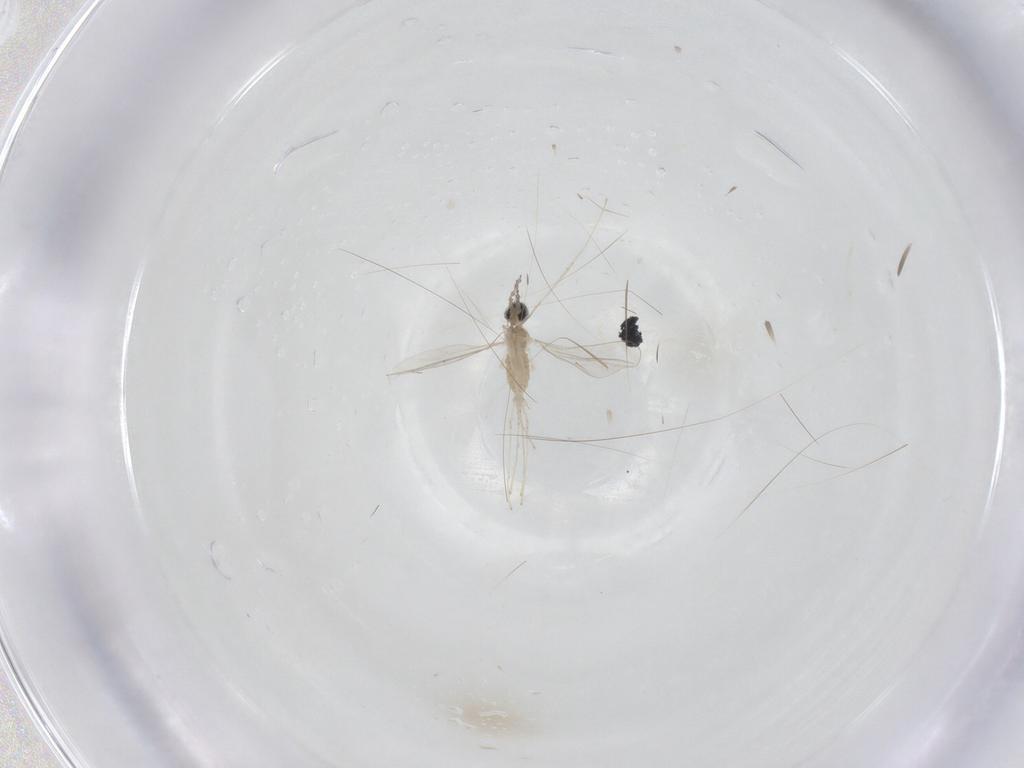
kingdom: Animalia
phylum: Arthropoda
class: Insecta
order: Diptera
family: Cecidomyiidae
